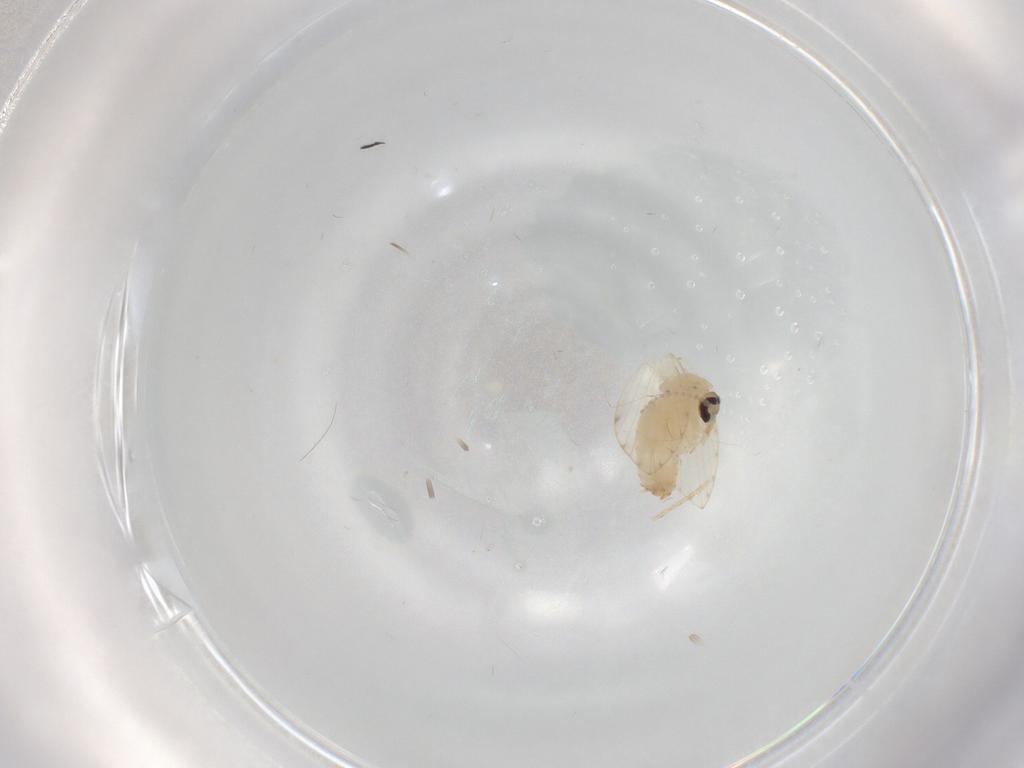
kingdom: Animalia
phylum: Arthropoda
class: Insecta
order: Diptera
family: Psychodidae
